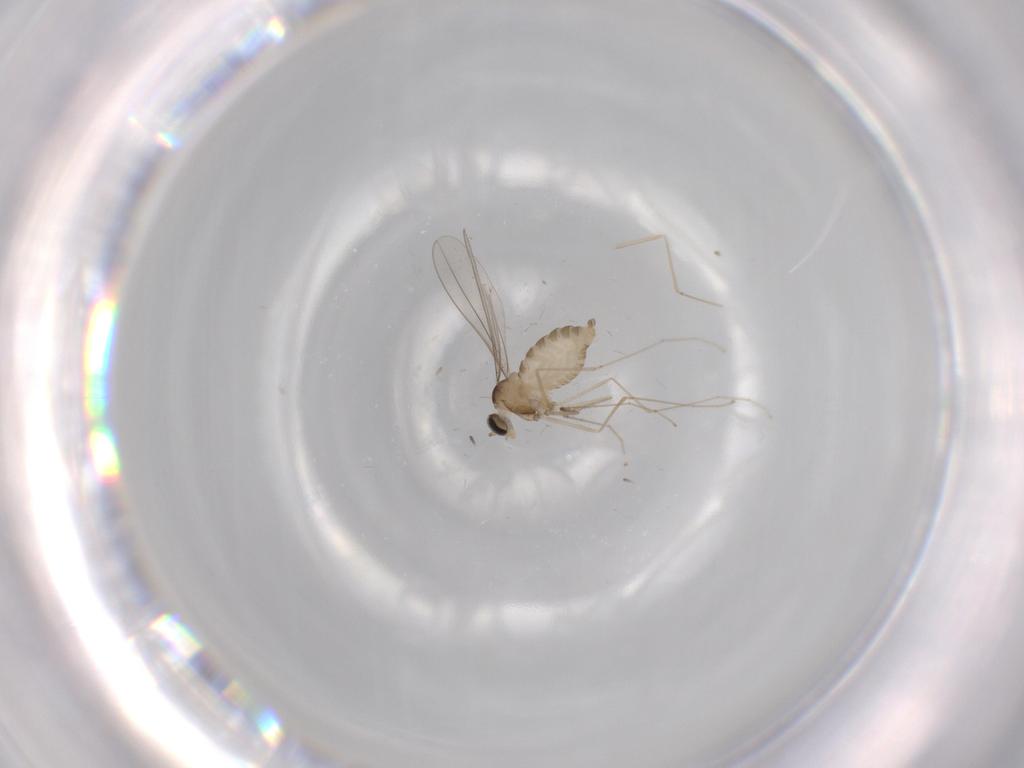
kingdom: Animalia
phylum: Arthropoda
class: Insecta
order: Diptera
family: Cecidomyiidae
